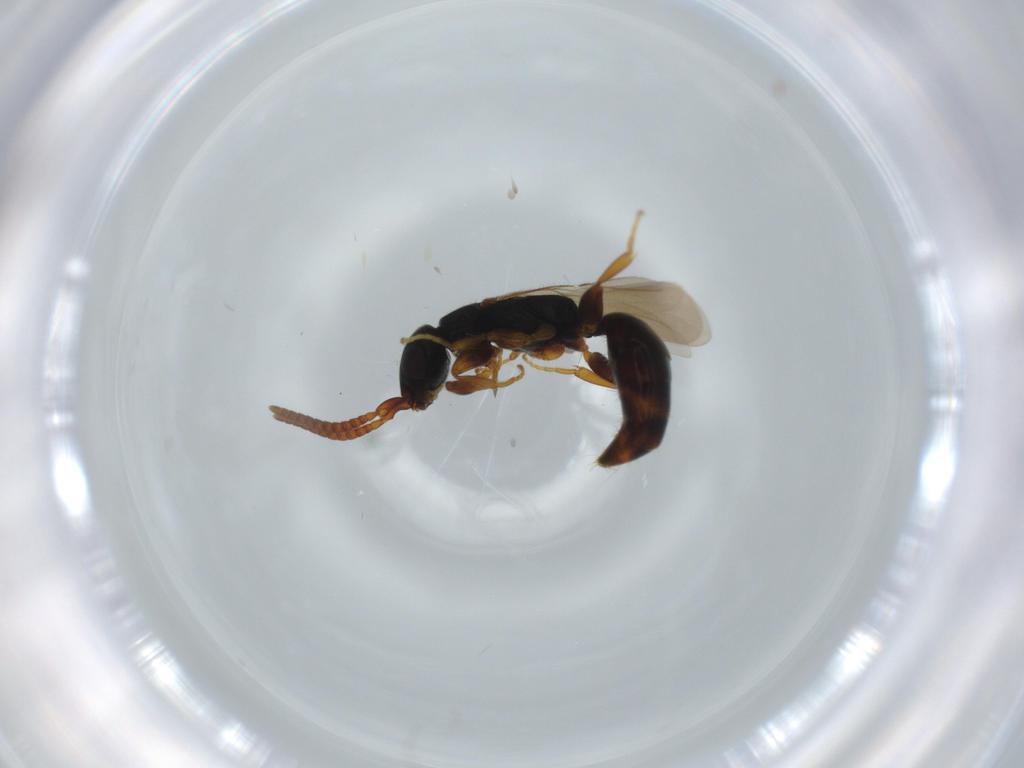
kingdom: Animalia
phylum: Arthropoda
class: Insecta
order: Hymenoptera
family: Bethylidae
